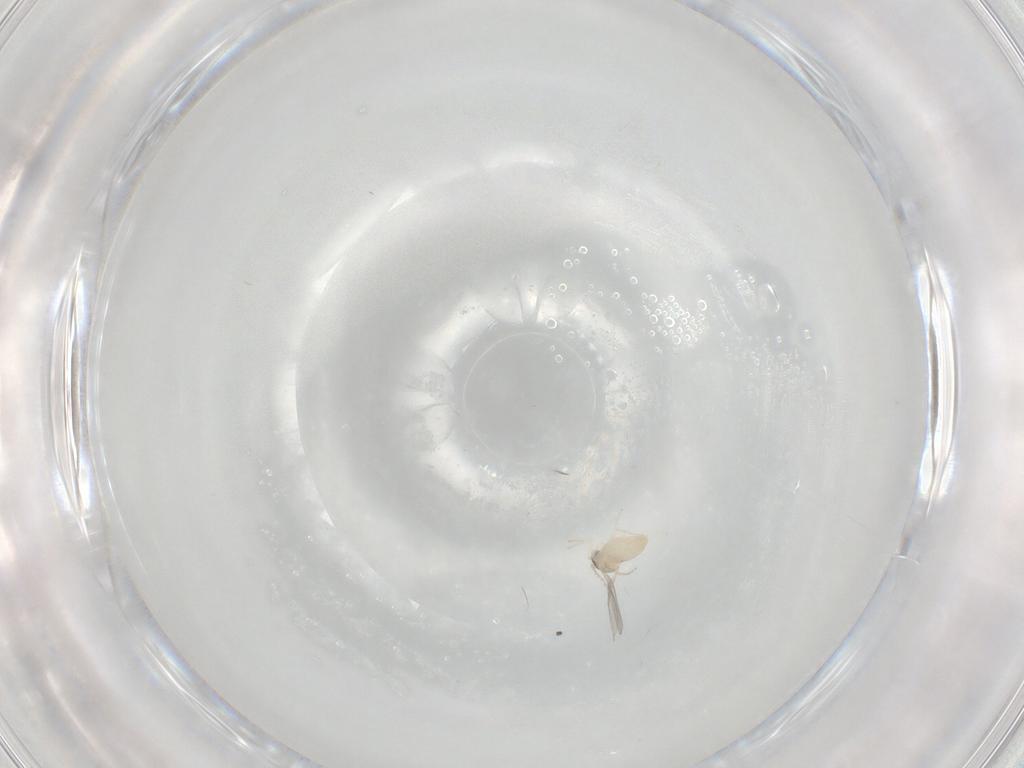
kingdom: Animalia
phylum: Arthropoda
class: Insecta
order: Diptera
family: Cecidomyiidae
